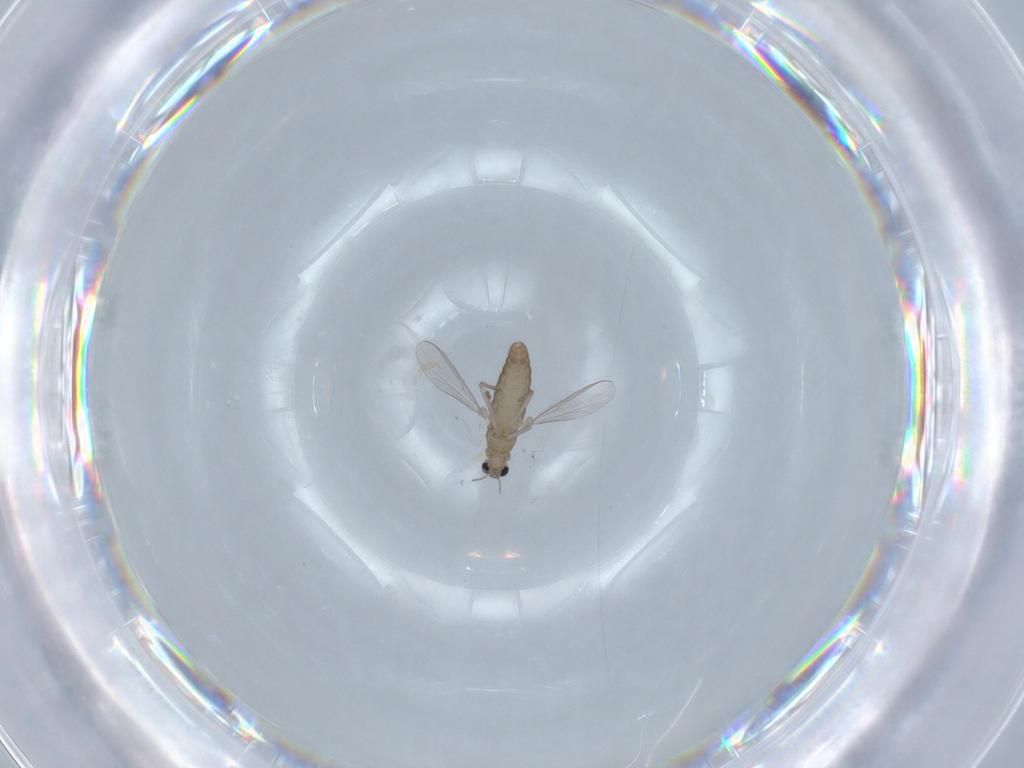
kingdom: Animalia
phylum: Arthropoda
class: Insecta
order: Diptera
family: Chironomidae
